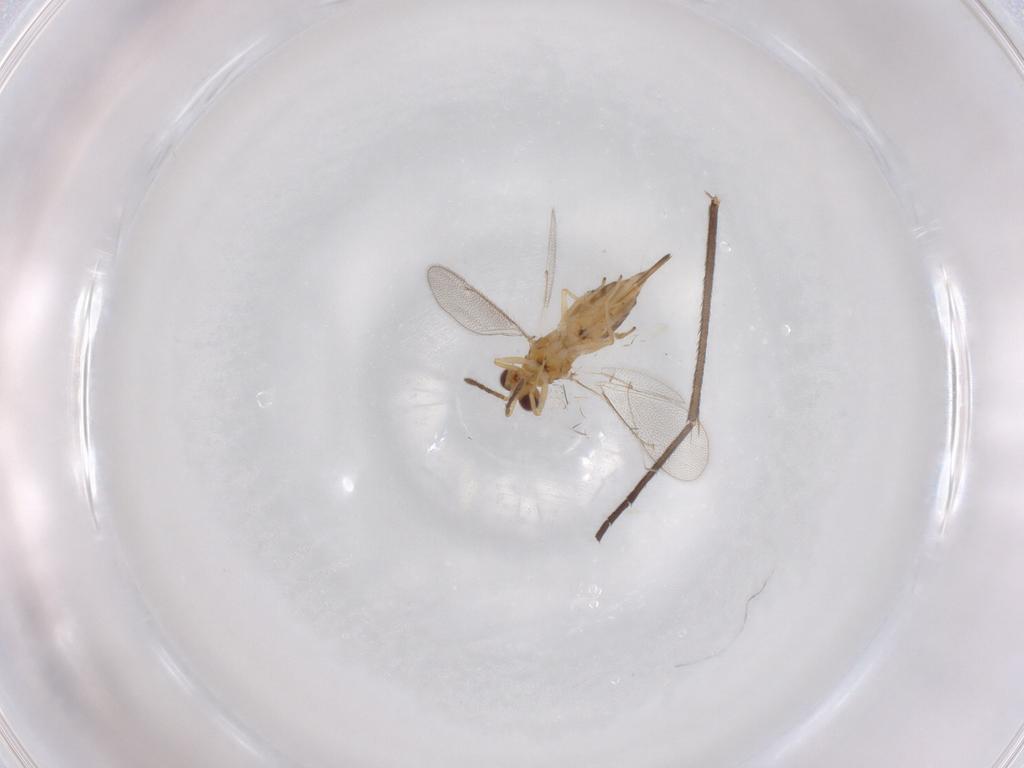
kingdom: Animalia
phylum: Arthropoda
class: Insecta
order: Hymenoptera
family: Eulophidae
